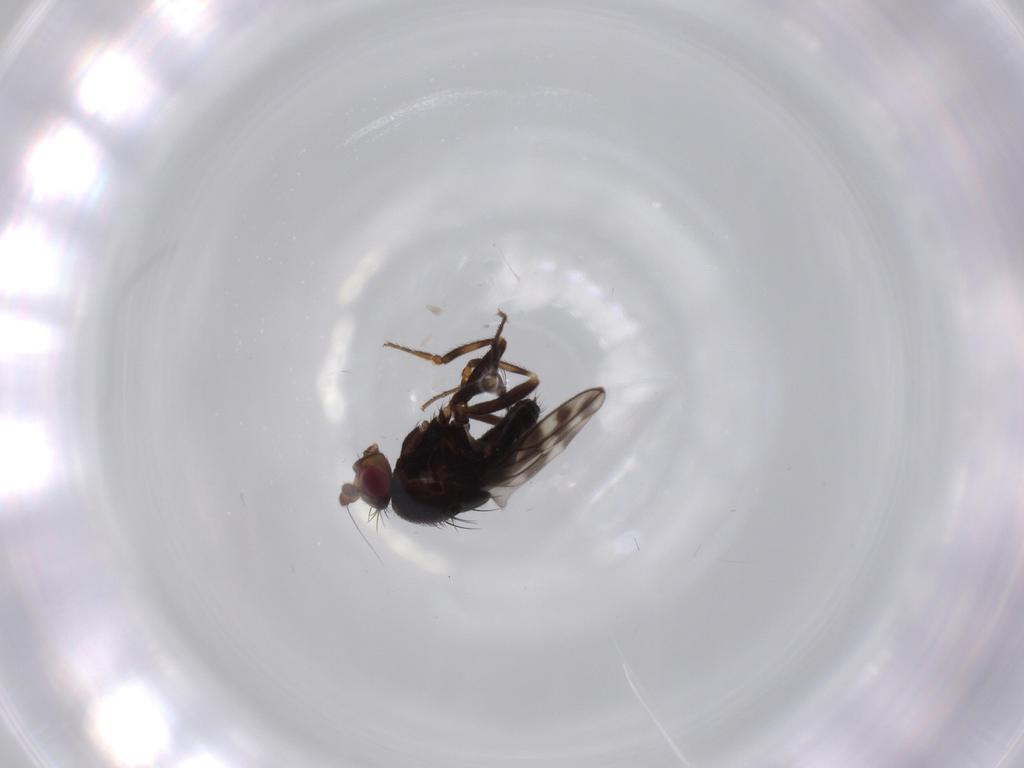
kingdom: Animalia
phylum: Arthropoda
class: Insecta
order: Diptera
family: Sphaeroceridae
